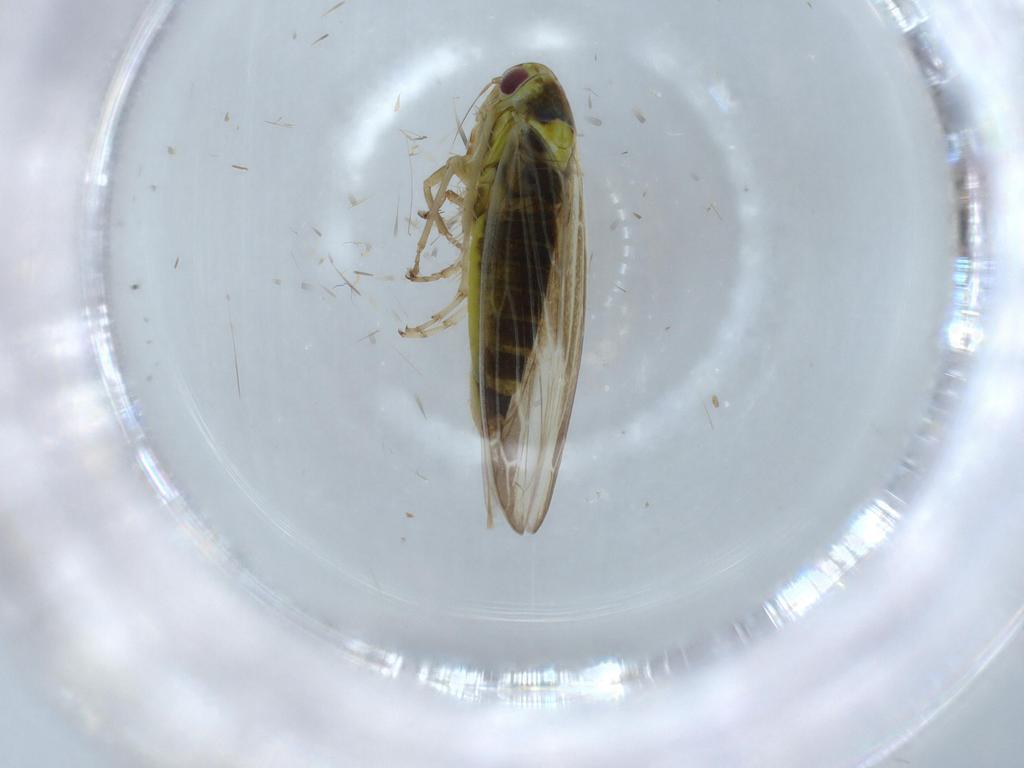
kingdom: Animalia
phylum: Arthropoda
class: Insecta
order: Hemiptera
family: Cicadellidae
